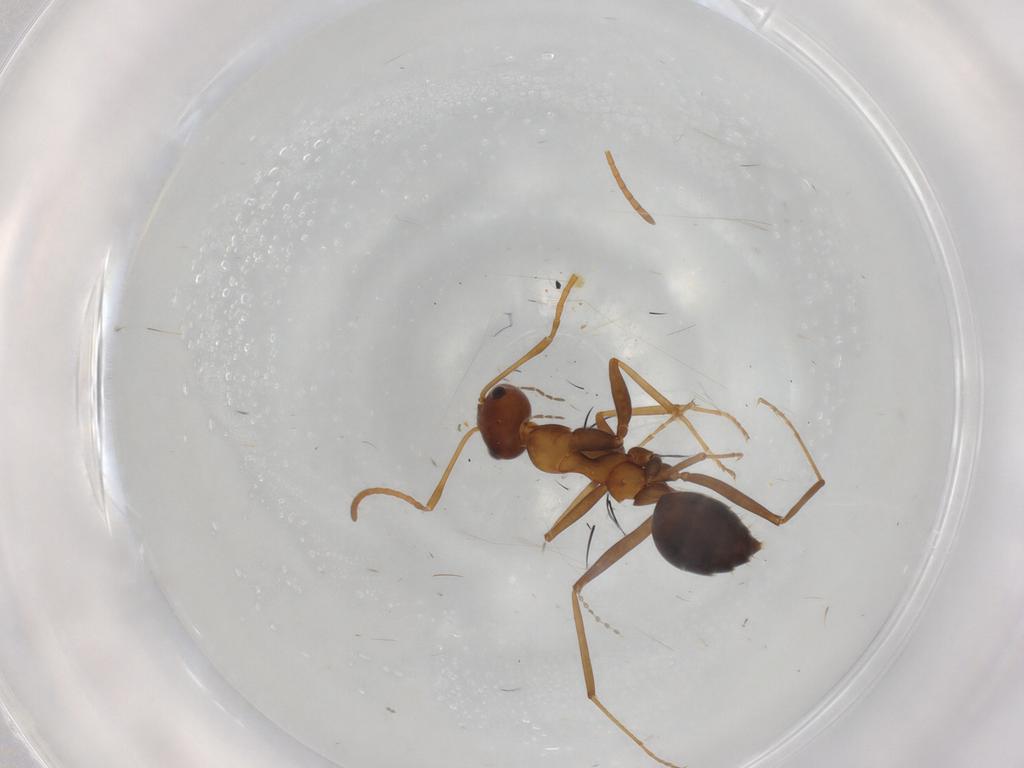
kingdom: Animalia
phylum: Arthropoda
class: Insecta
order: Hymenoptera
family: Formicidae
